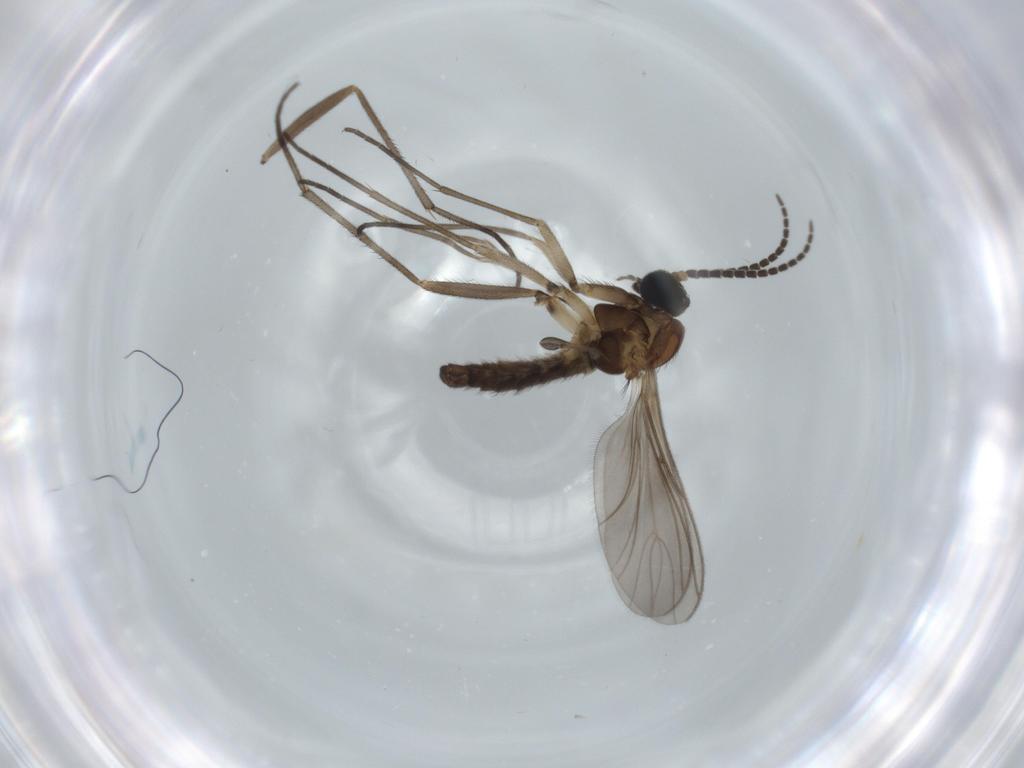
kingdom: Animalia
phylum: Arthropoda
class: Insecta
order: Diptera
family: Sciaridae
